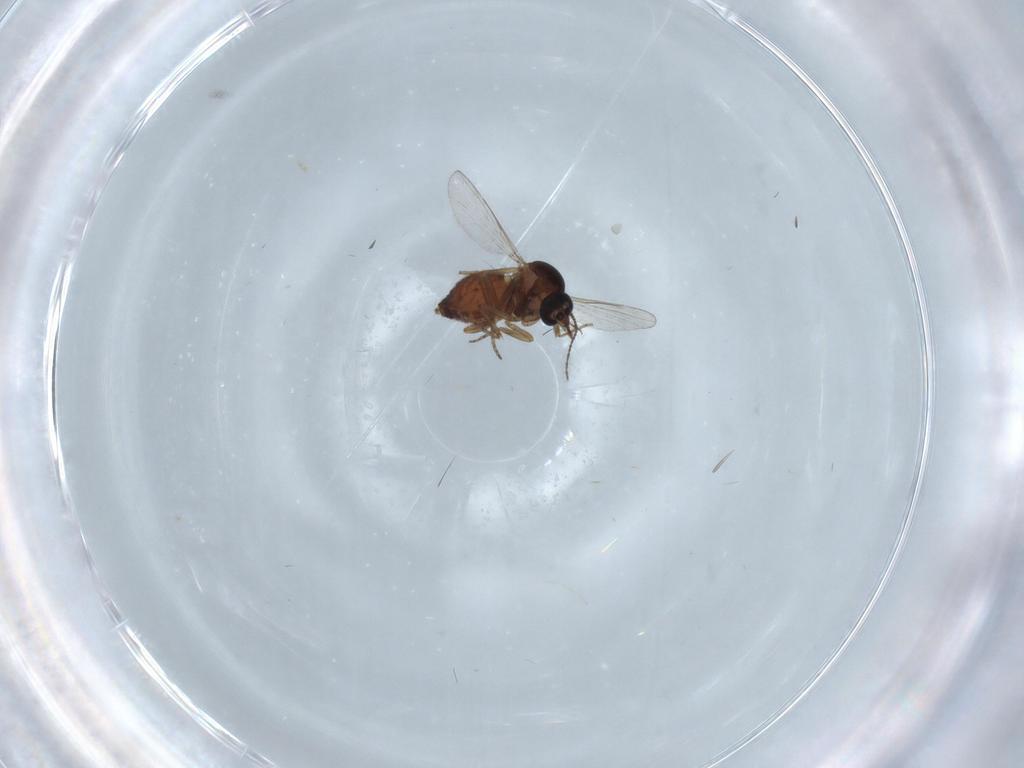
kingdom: Animalia
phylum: Arthropoda
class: Insecta
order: Diptera
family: Ceratopogonidae
